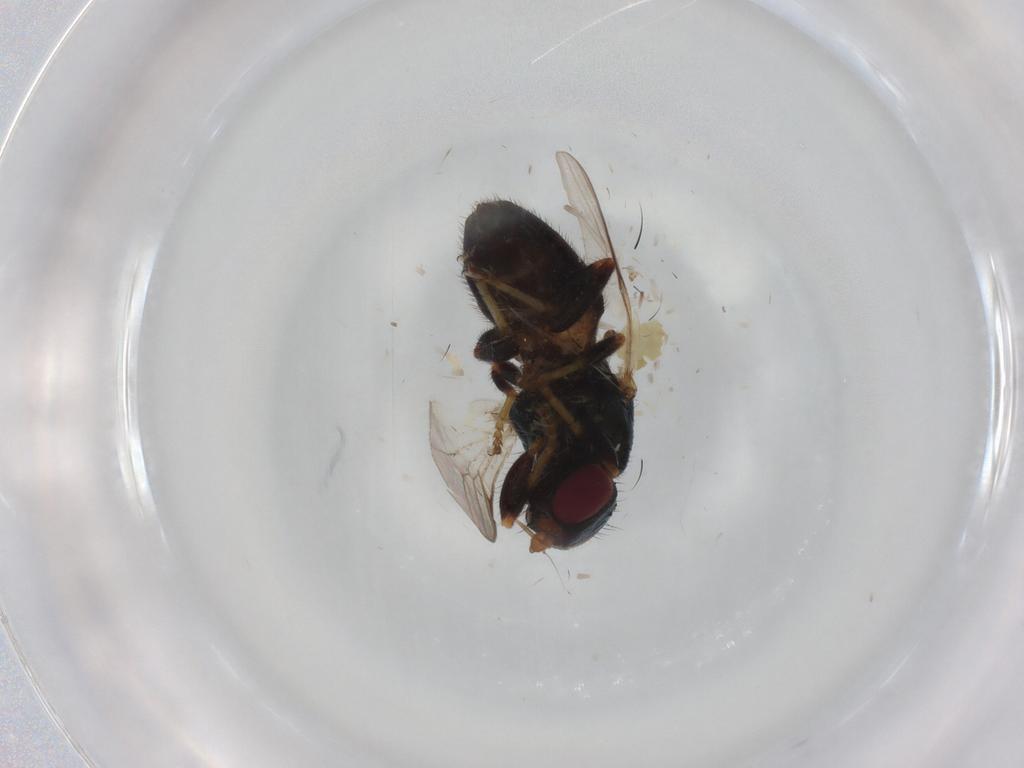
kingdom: Animalia
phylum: Arthropoda
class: Insecta
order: Diptera
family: Chloropidae
